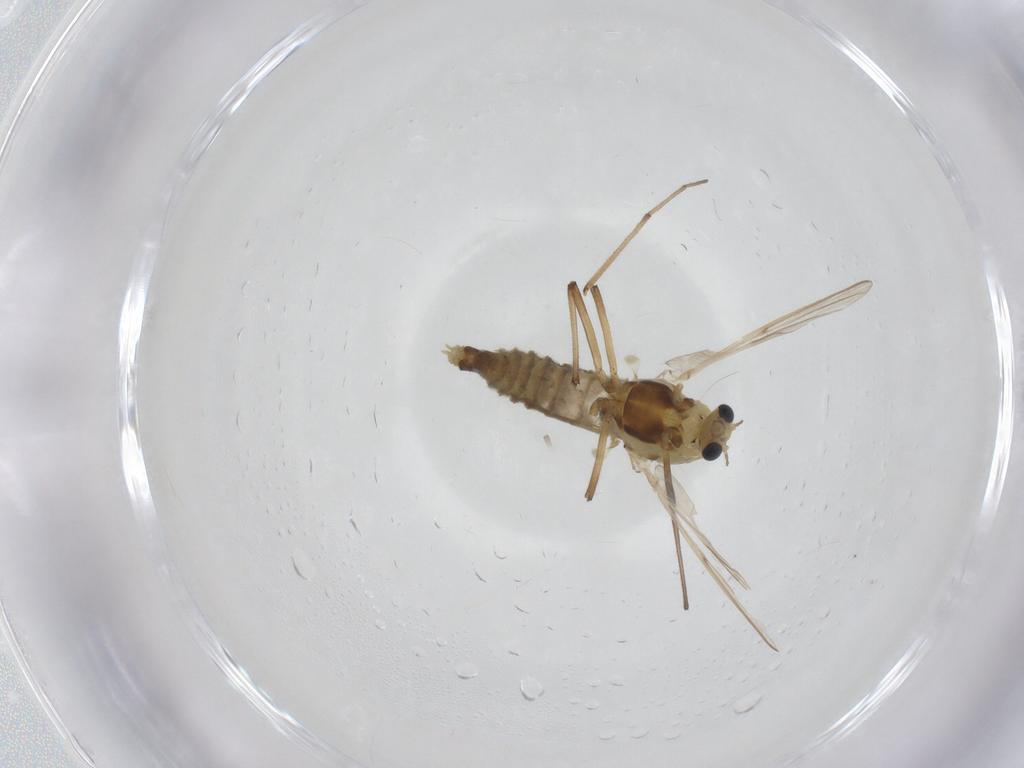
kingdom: Animalia
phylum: Arthropoda
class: Insecta
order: Diptera
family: Chironomidae
